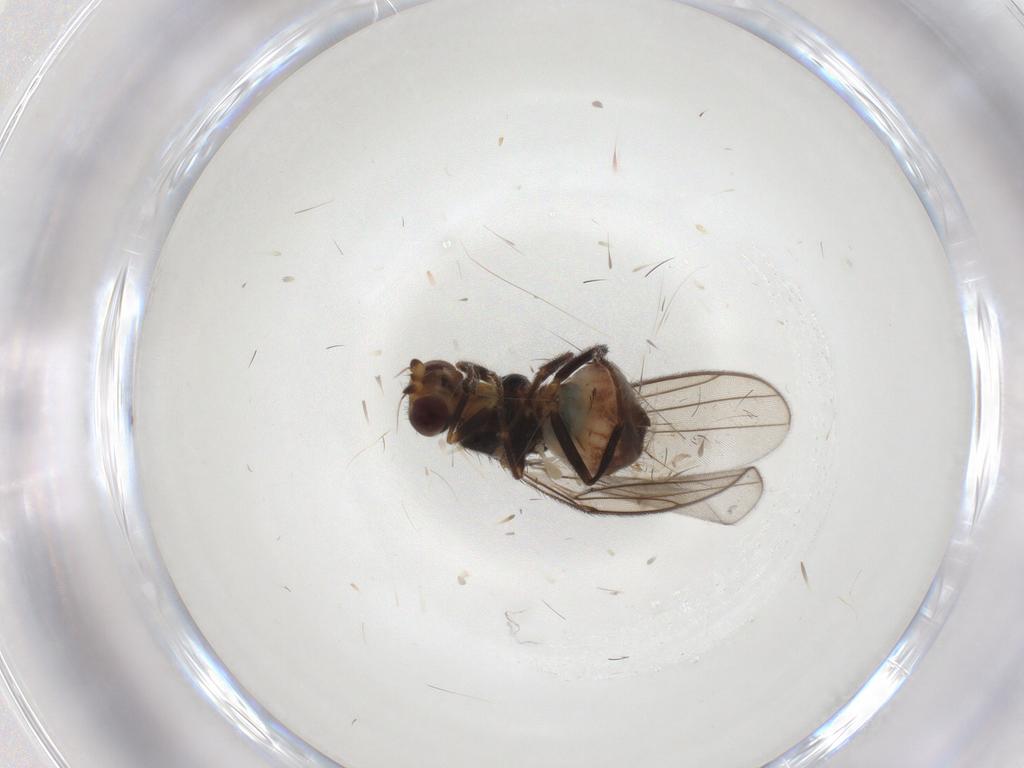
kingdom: Animalia
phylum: Arthropoda
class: Insecta
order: Diptera
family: Chloropidae
